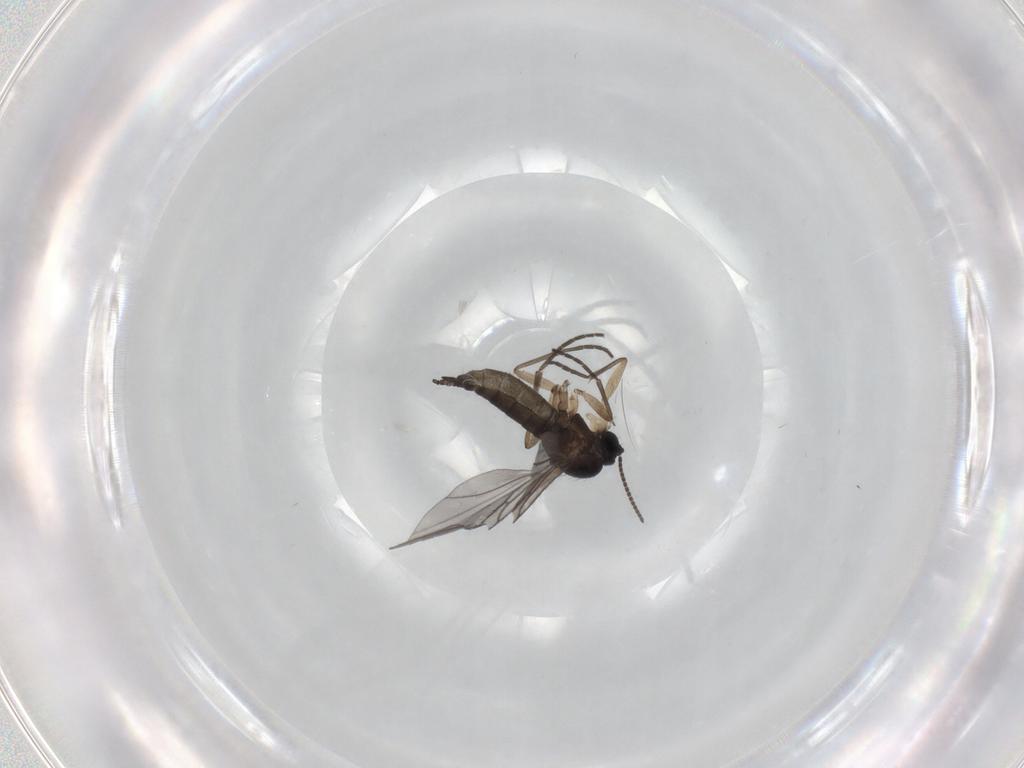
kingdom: Animalia
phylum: Arthropoda
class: Insecta
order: Diptera
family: Sciaridae
